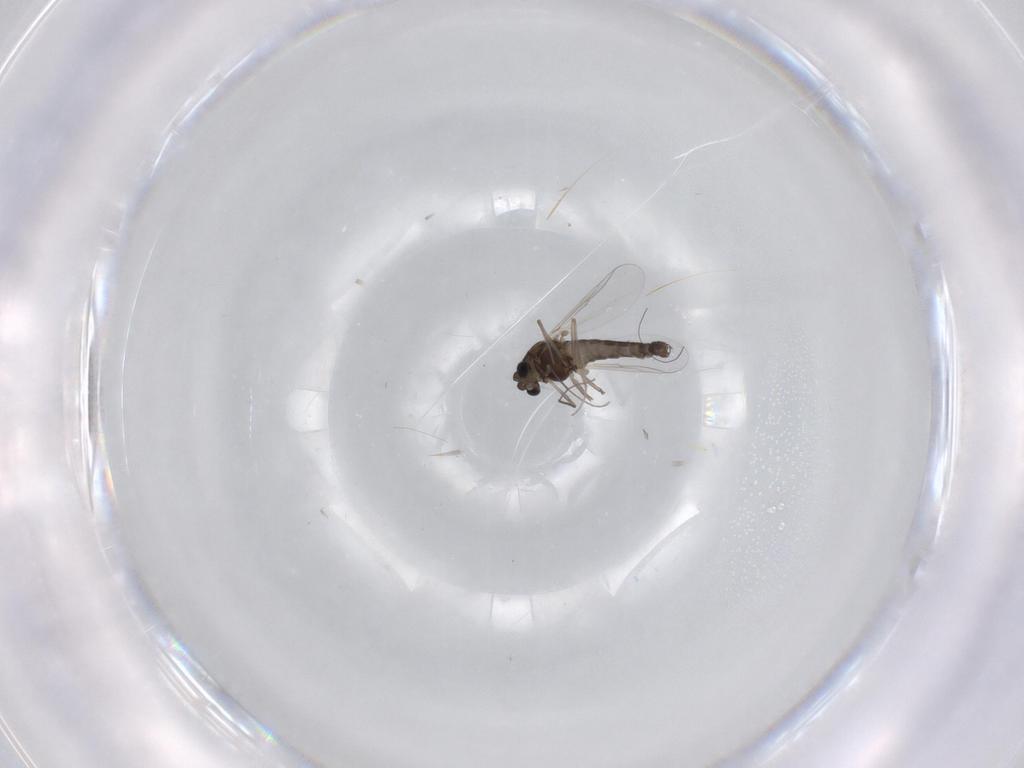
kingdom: Animalia
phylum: Arthropoda
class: Insecta
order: Diptera
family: Chironomidae
